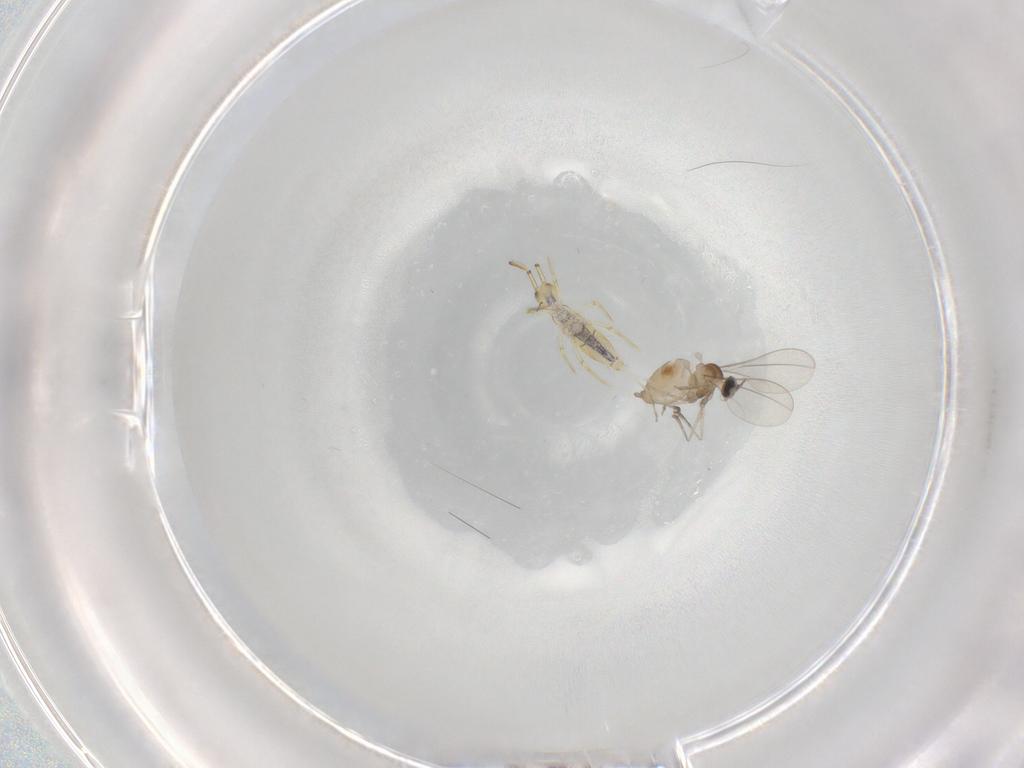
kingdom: Animalia
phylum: Arthropoda
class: Insecta
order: Diptera
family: Cecidomyiidae
